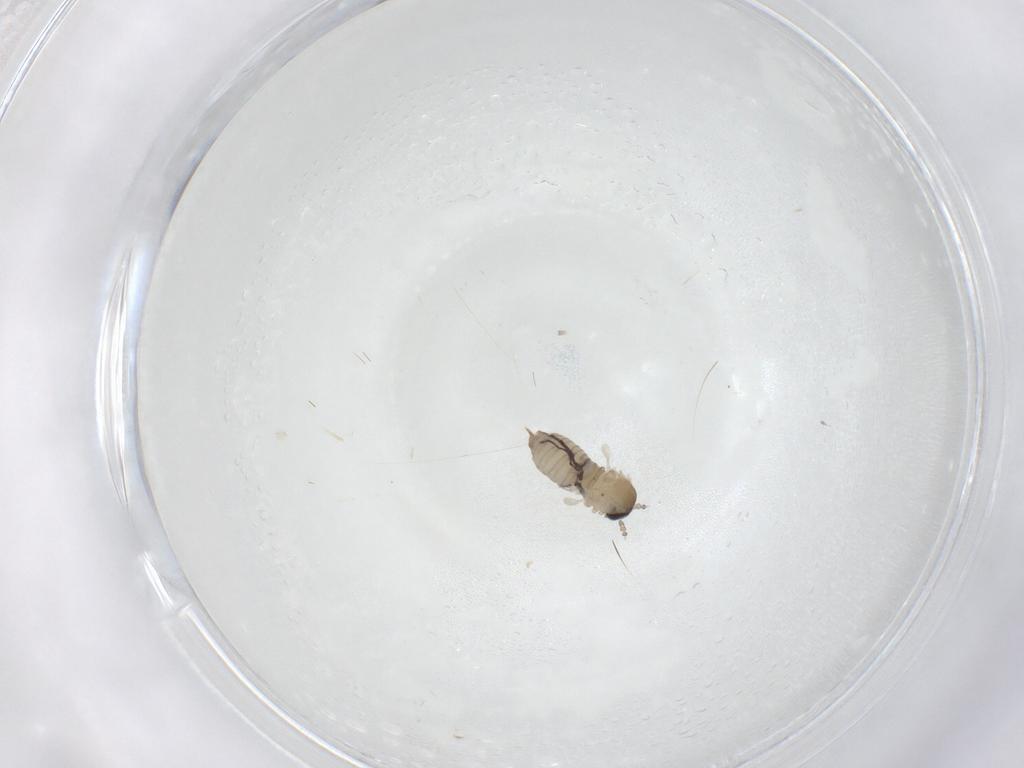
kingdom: Animalia
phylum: Arthropoda
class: Insecta
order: Diptera
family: Psychodidae
